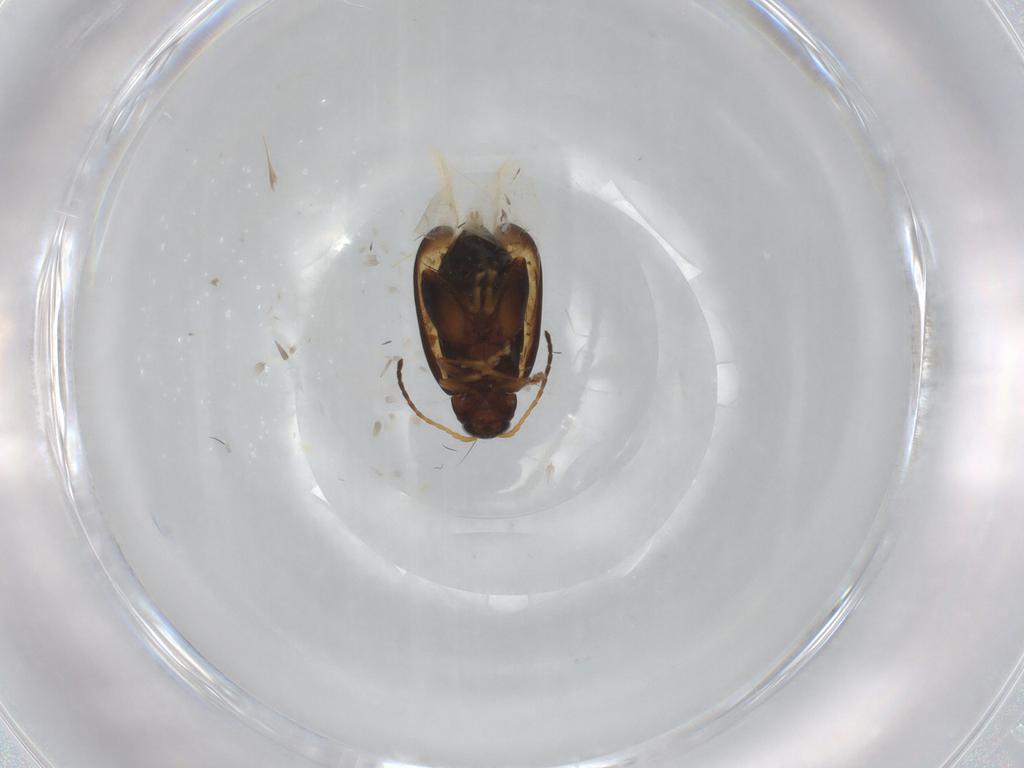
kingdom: Animalia
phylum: Arthropoda
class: Insecta
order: Coleoptera
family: Chrysomelidae
